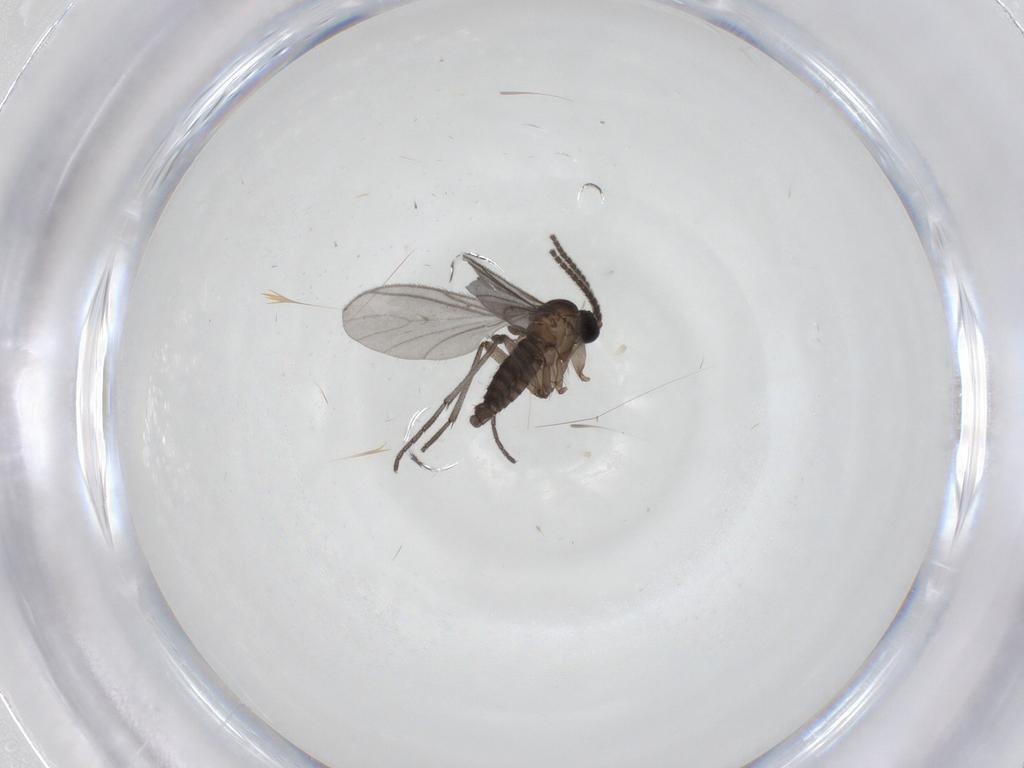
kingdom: Animalia
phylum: Arthropoda
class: Insecta
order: Diptera
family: Sciaridae
